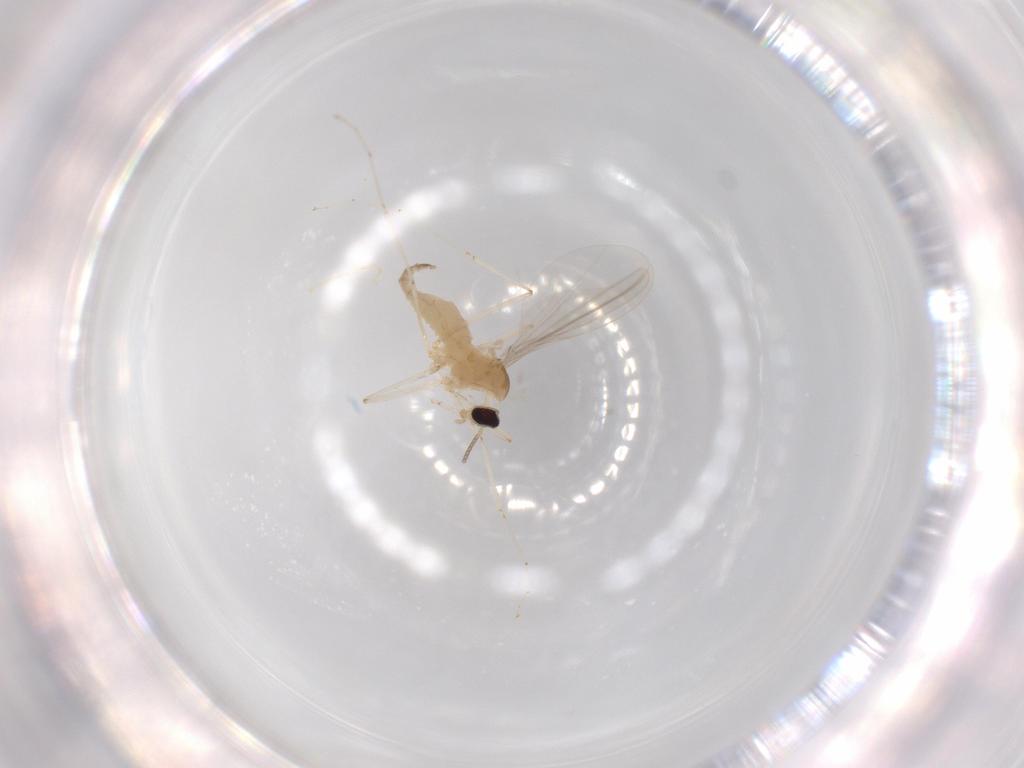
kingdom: Animalia
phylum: Arthropoda
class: Insecta
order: Diptera
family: Cecidomyiidae
